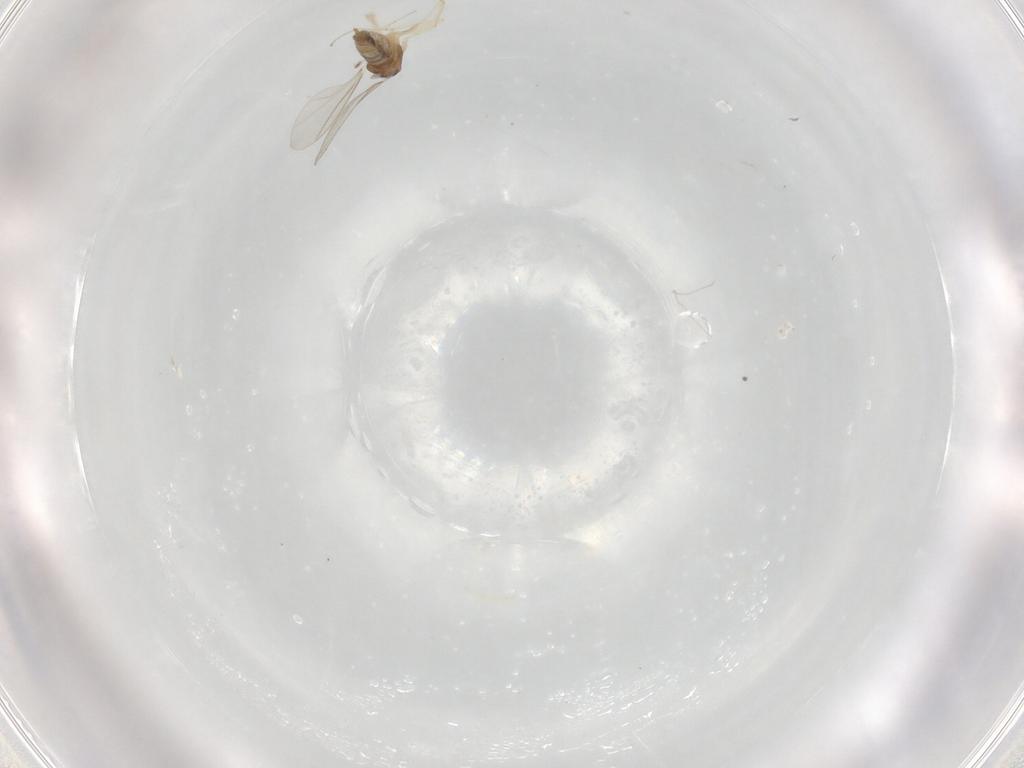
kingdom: Animalia
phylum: Arthropoda
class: Insecta
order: Diptera
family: Cecidomyiidae
